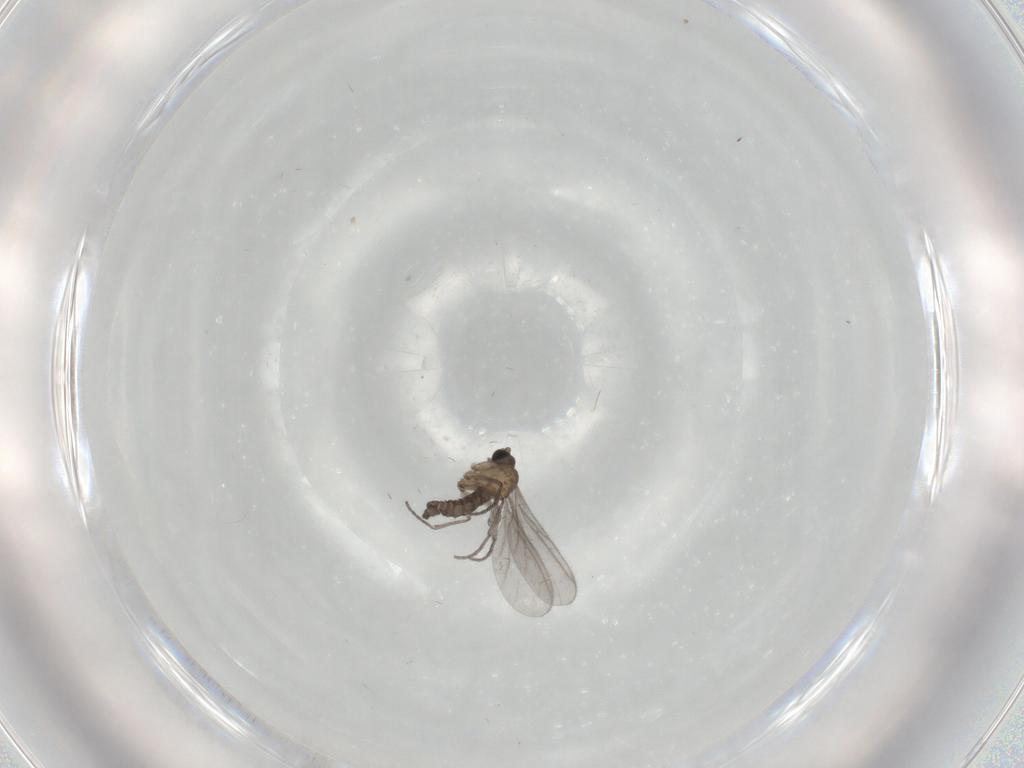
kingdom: Animalia
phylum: Arthropoda
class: Insecta
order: Diptera
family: Sciaridae
